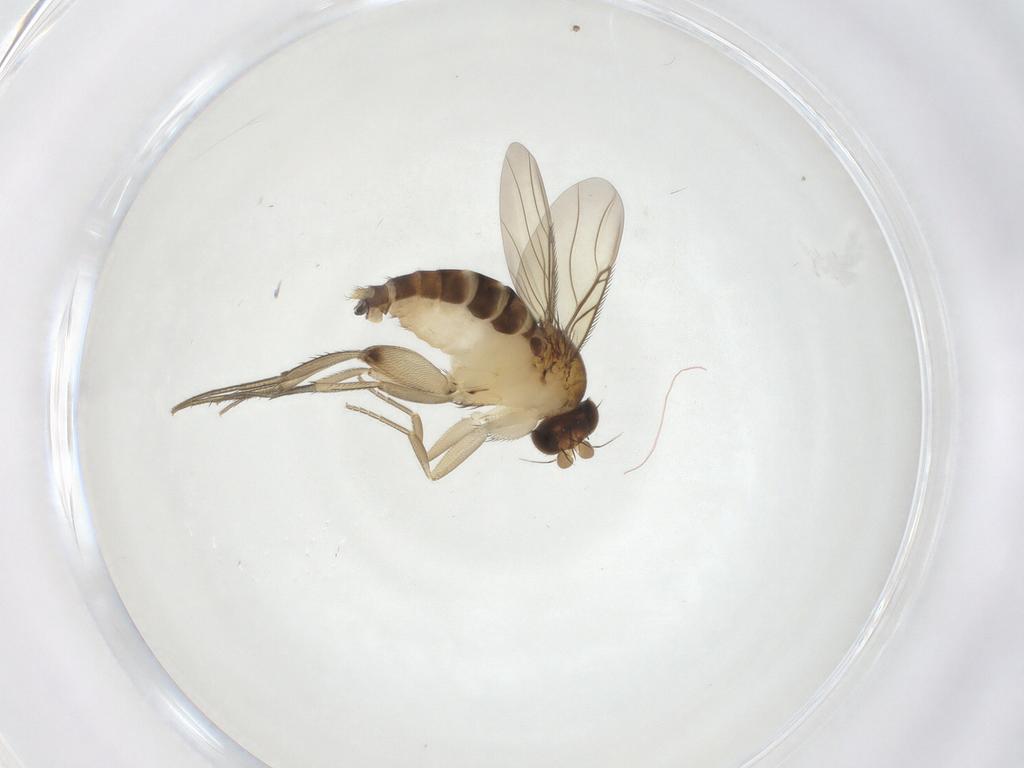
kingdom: Animalia
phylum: Arthropoda
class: Insecta
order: Diptera
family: Phoridae
